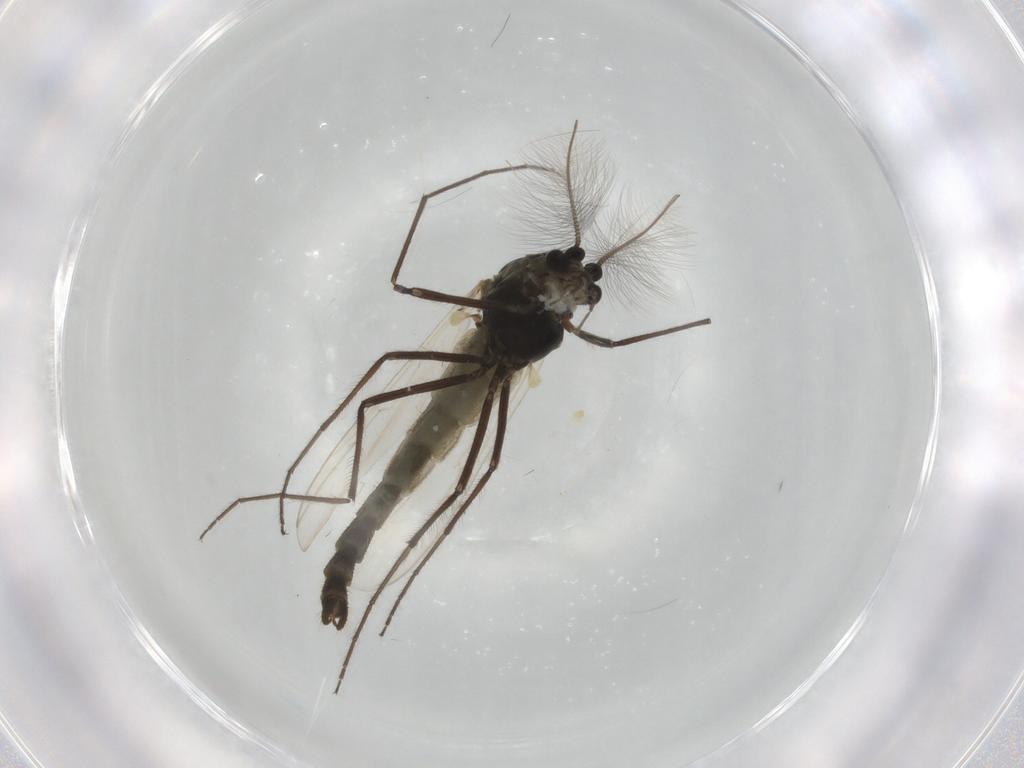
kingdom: Animalia
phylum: Arthropoda
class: Insecta
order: Diptera
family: Chironomidae
